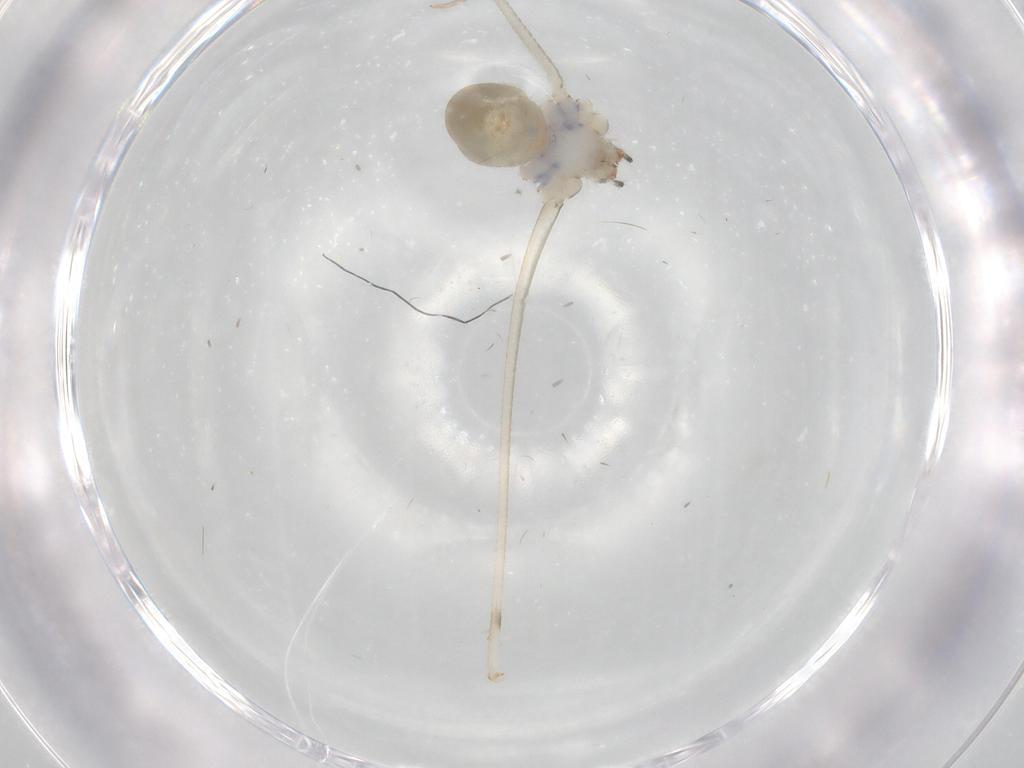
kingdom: Animalia
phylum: Arthropoda
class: Arachnida
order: Araneae
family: Pholcidae
